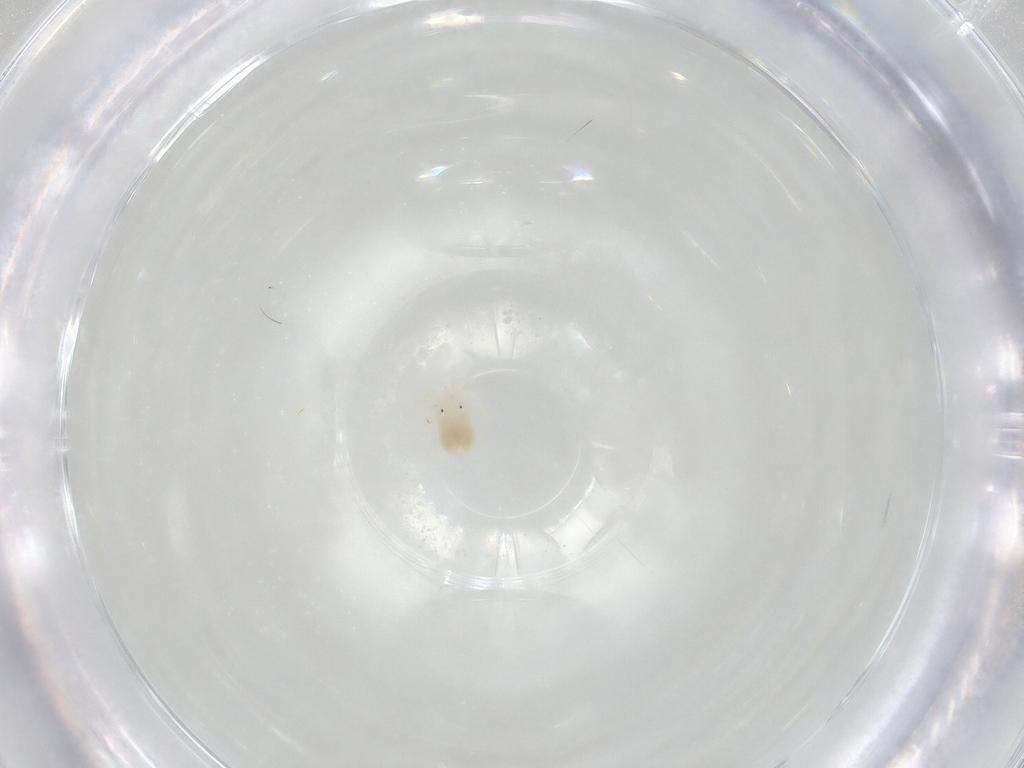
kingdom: Animalia
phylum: Arthropoda
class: Arachnida
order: Trombidiformes
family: Anystidae
